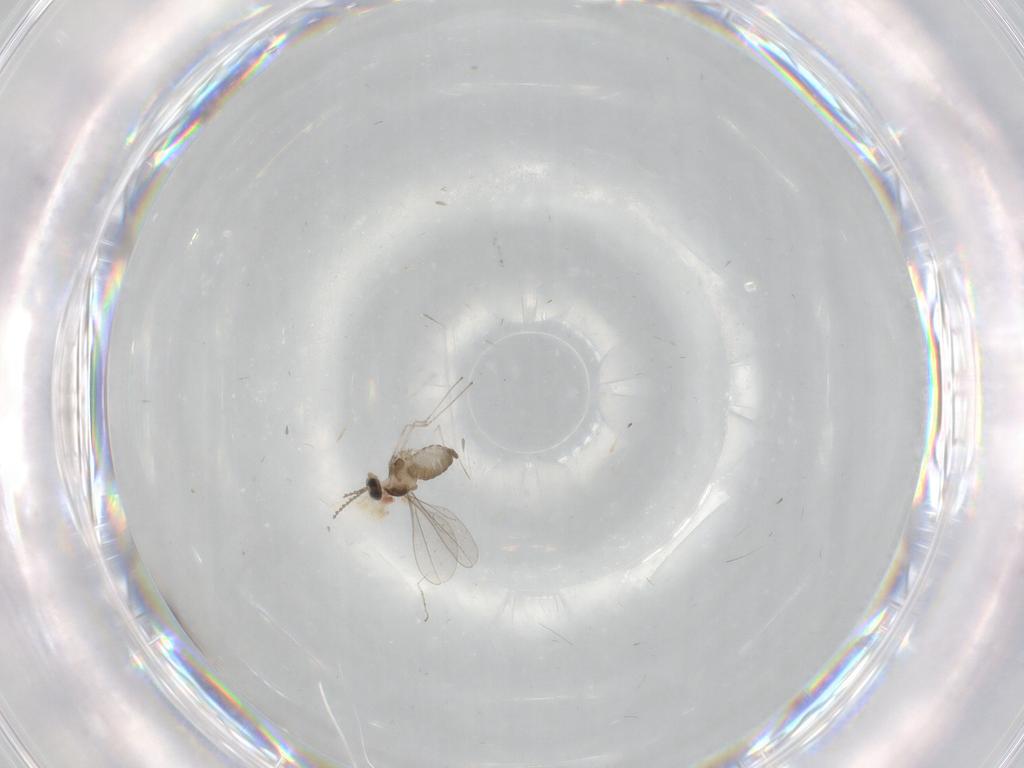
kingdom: Animalia
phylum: Arthropoda
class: Insecta
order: Diptera
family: Cecidomyiidae
